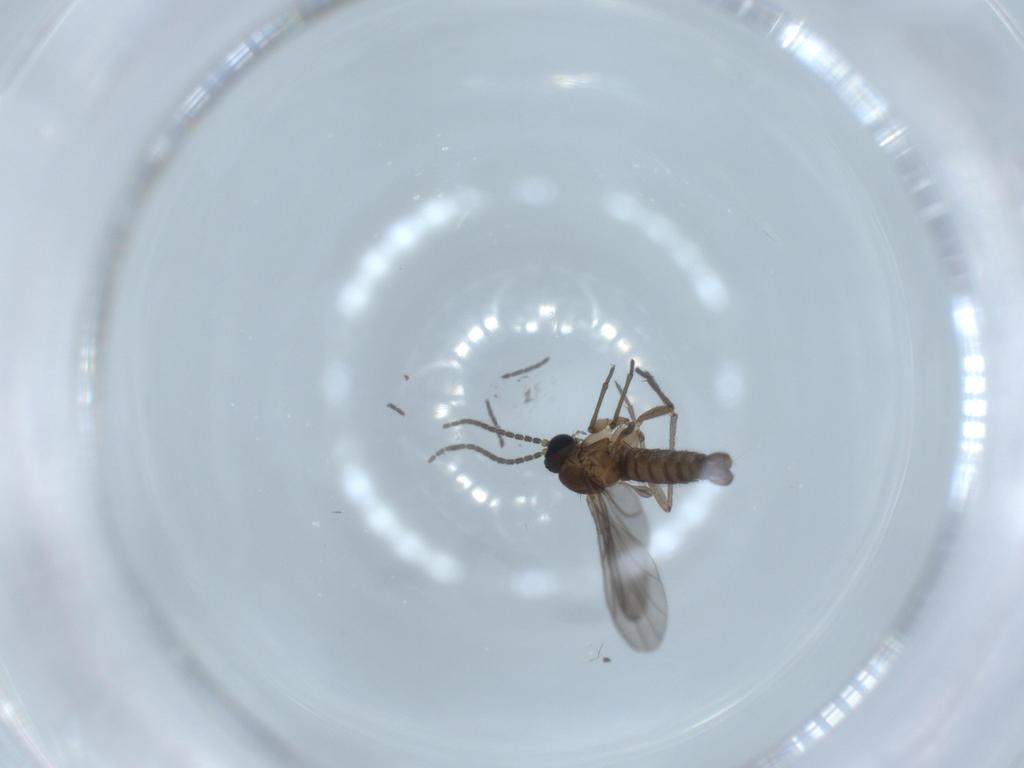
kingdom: Animalia
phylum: Arthropoda
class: Insecta
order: Diptera
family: Sciaridae
